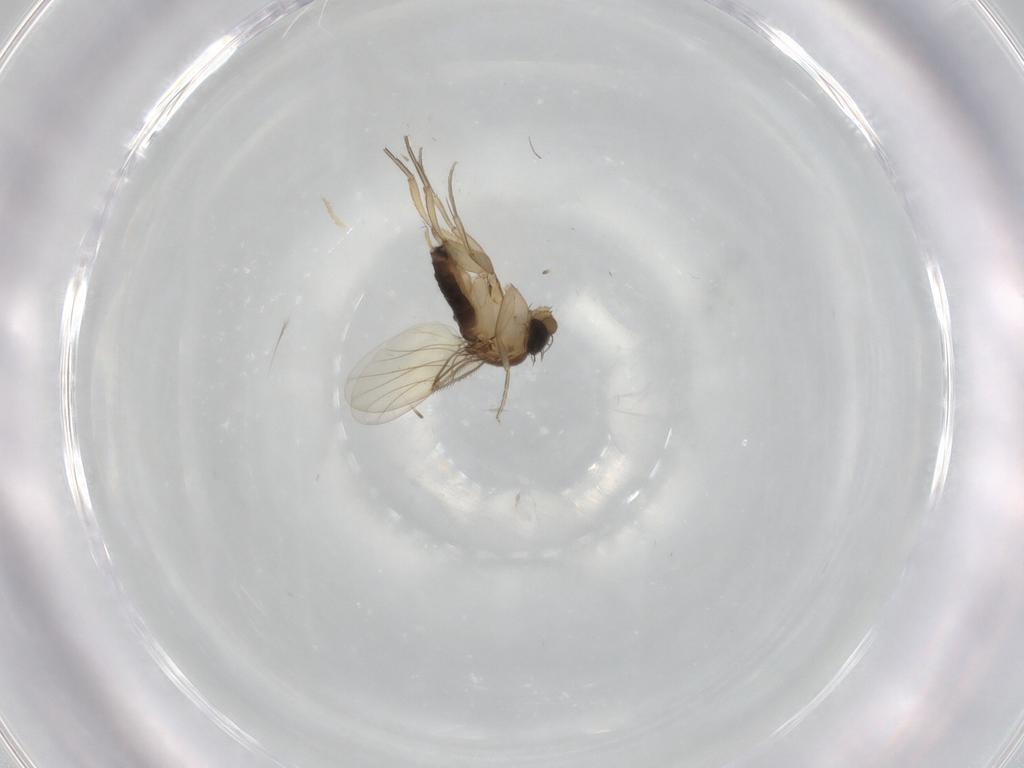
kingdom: Animalia
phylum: Arthropoda
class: Insecta
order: Diptera
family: Phoridae
